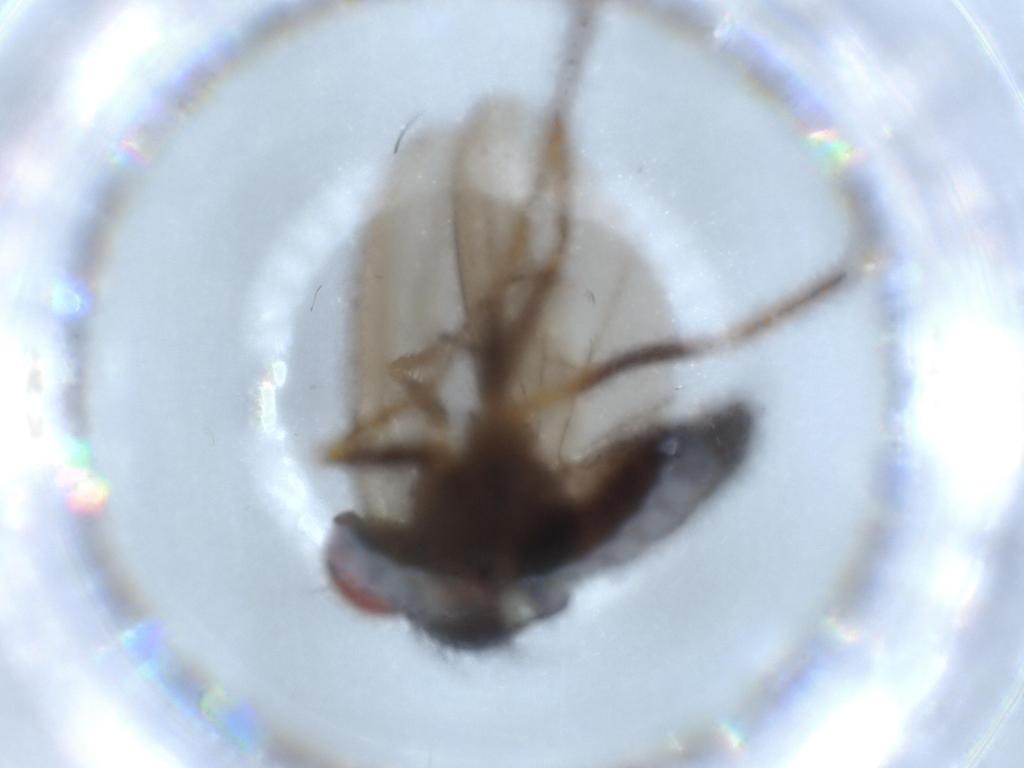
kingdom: Animalia
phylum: Arthropoda
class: Insecta
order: Diptera
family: Dolichopodidae
